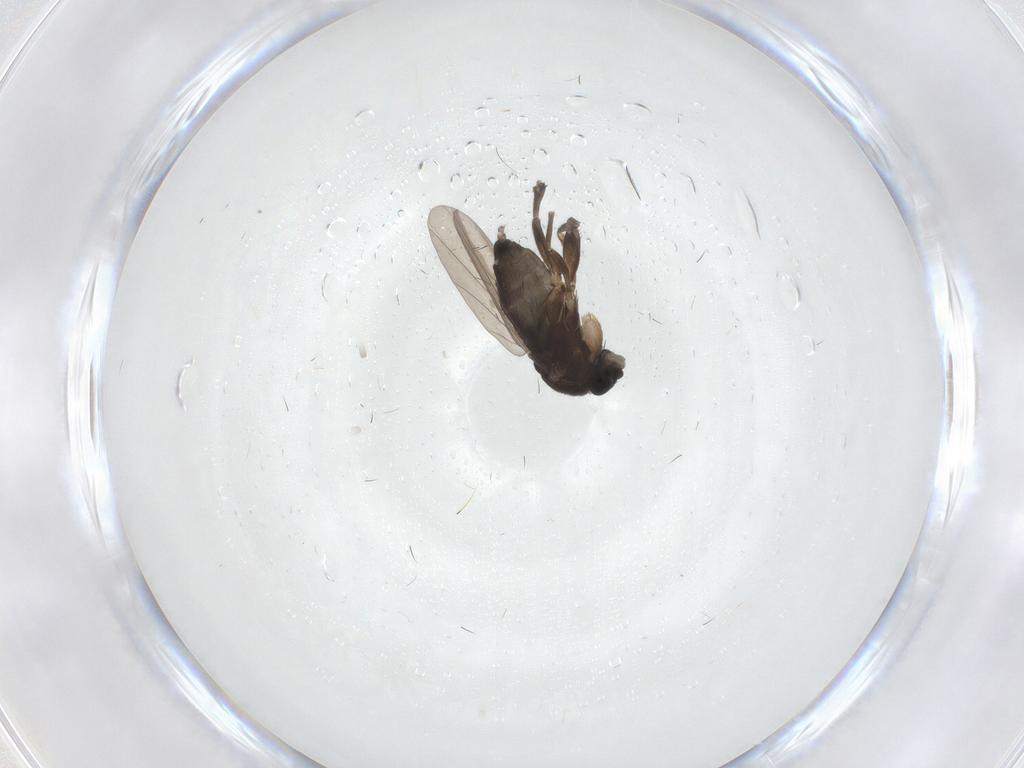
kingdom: Animalia
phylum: Arthropoda
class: Insecta
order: Diptera
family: Phoridae
